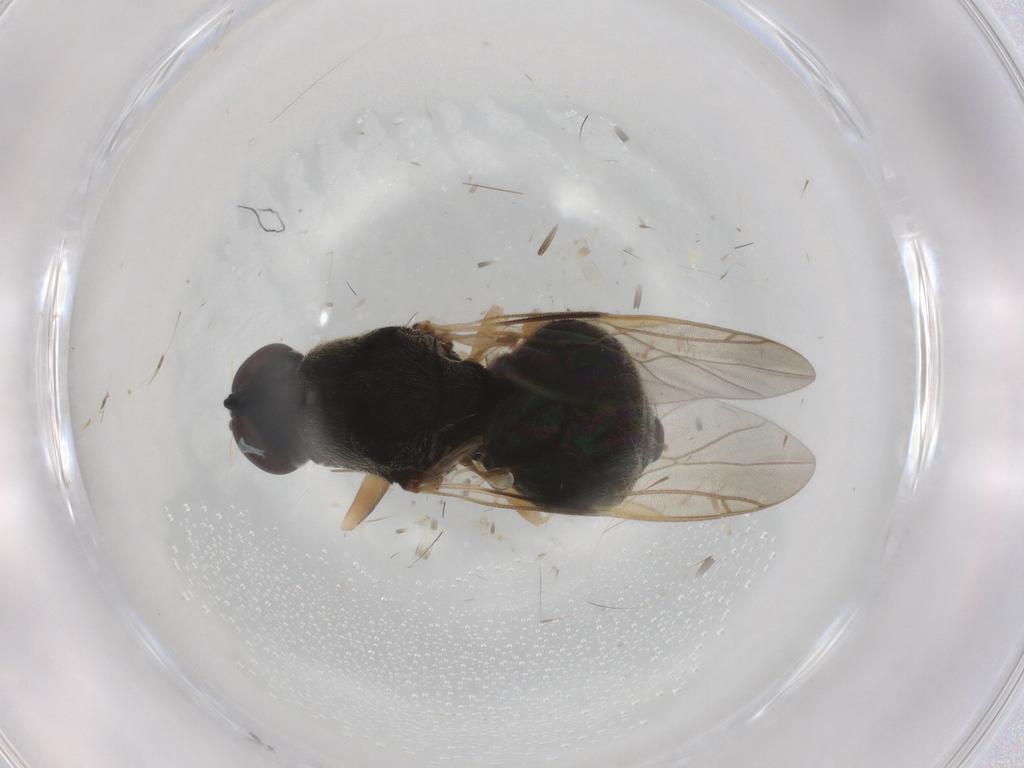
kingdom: Animalia
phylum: Arthropoda
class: Insecta
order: Diptera
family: Stratiomyidae
